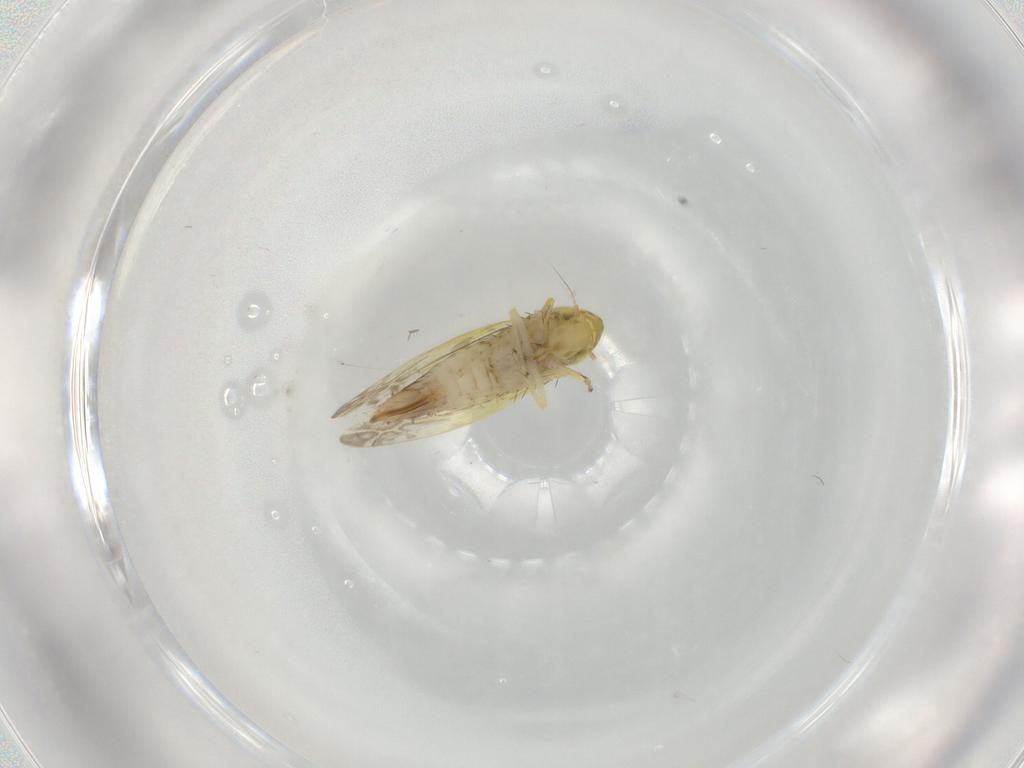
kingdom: Animalia
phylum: Arthropoda
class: Insecta
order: Hemiptera
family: Cicadellidae
